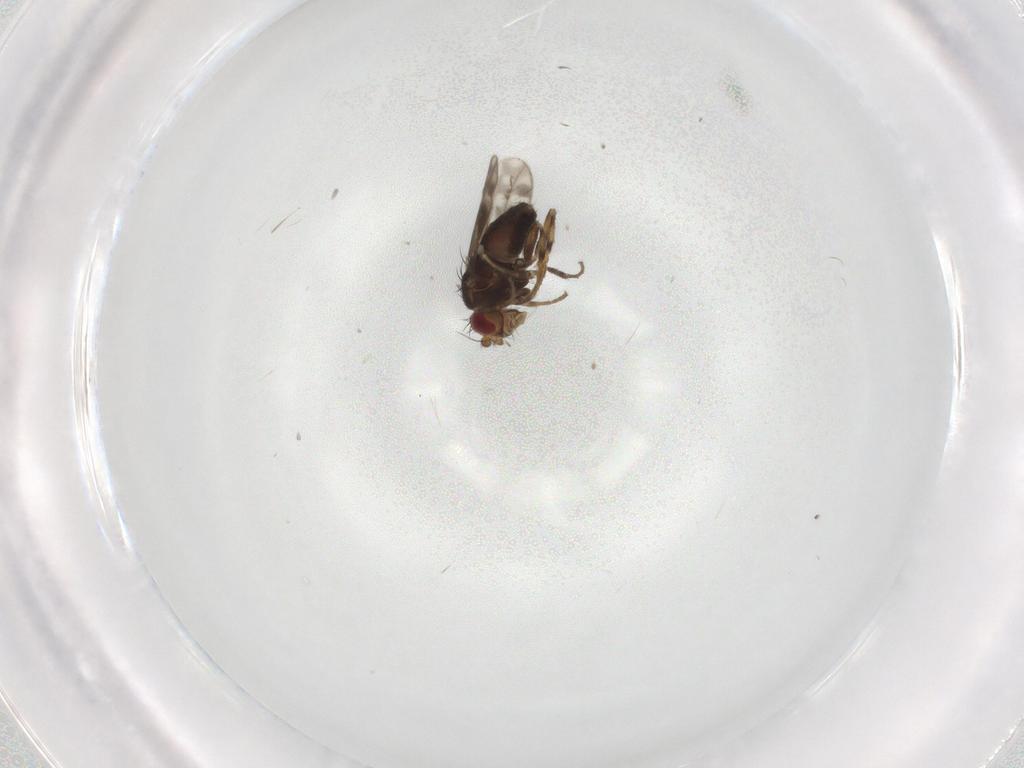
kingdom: Animalia
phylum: Arthropoda
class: Insecta
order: Diptera
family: Sphaeroceridae
